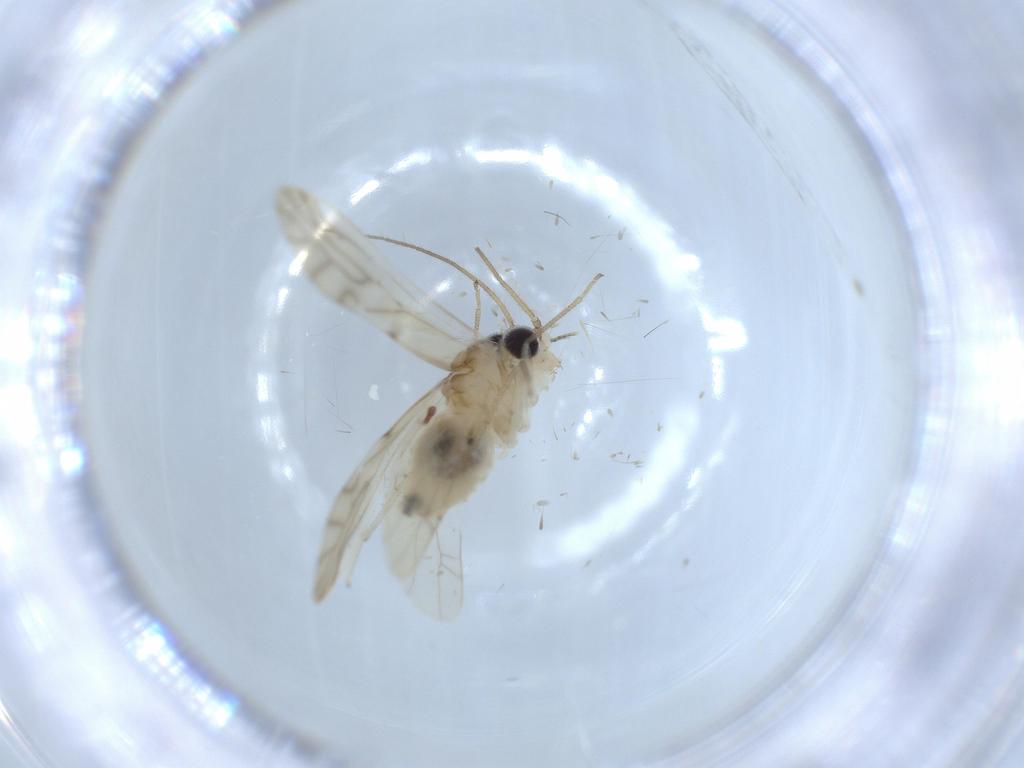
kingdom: Animalia
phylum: Arthropoda
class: Insecta
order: Psocodea
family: Caeciliusidae
